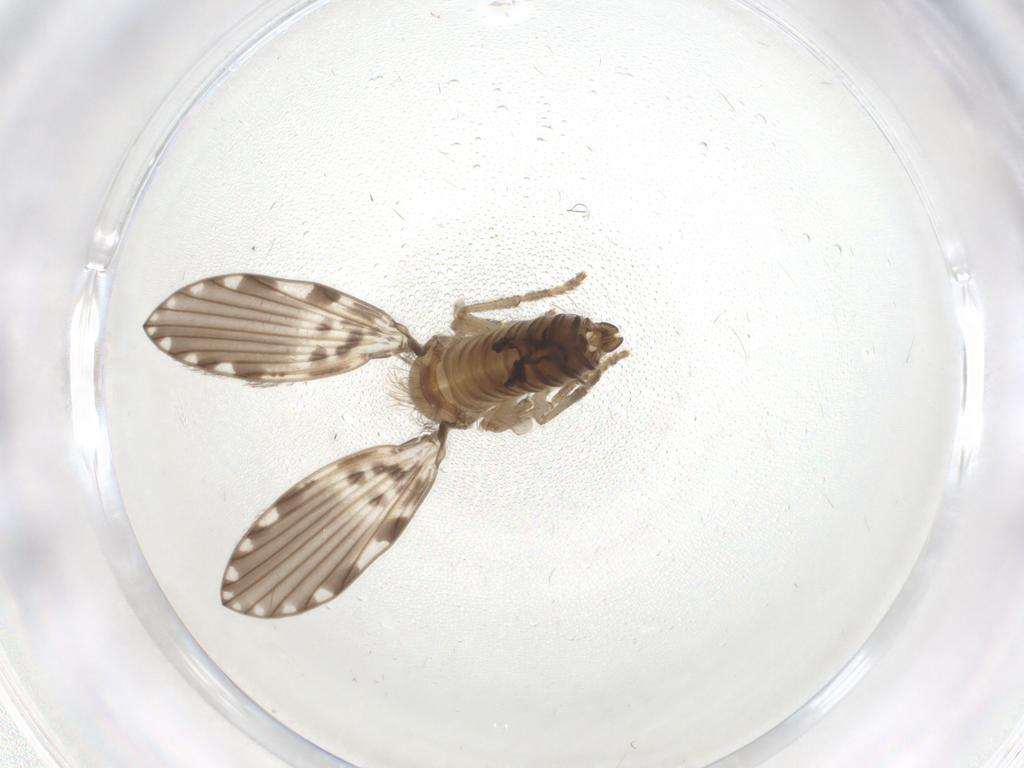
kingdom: Animalia
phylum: Arthropoda
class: Insecta
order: Diptera
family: Psychodidae
